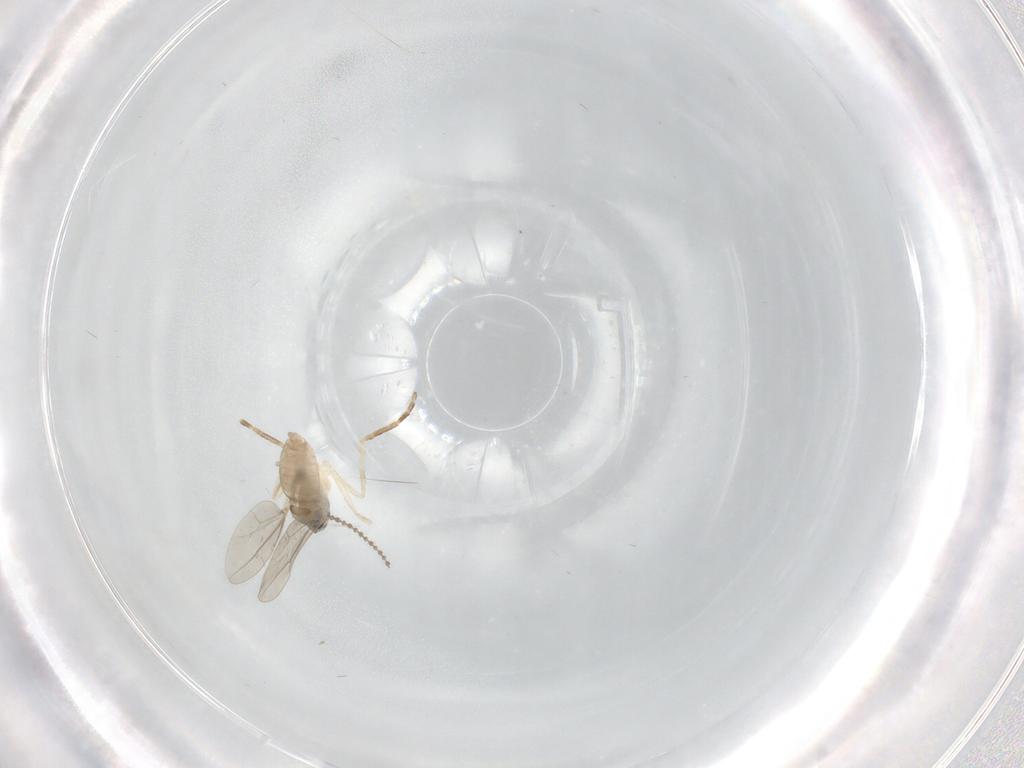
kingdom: Animalia
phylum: Arthropoda
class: Insecta
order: Diptera
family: Cecidomyiidae
